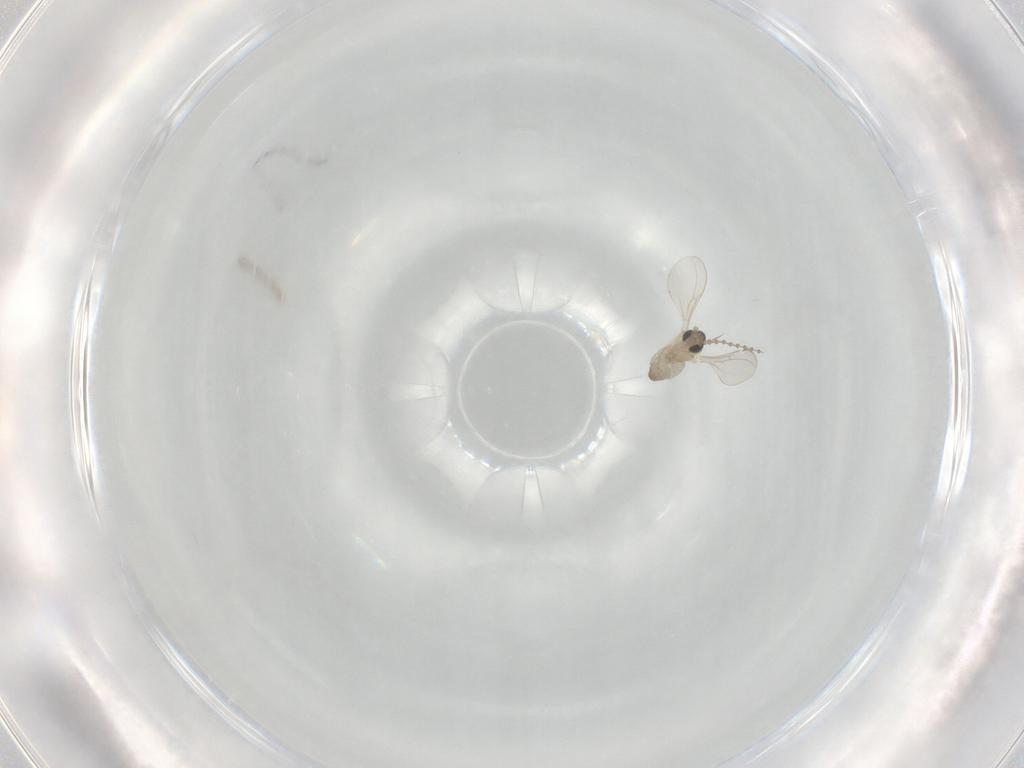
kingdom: Animalia
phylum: Arthropoda
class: Insecta
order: Diptera
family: Cecidomyiidae
